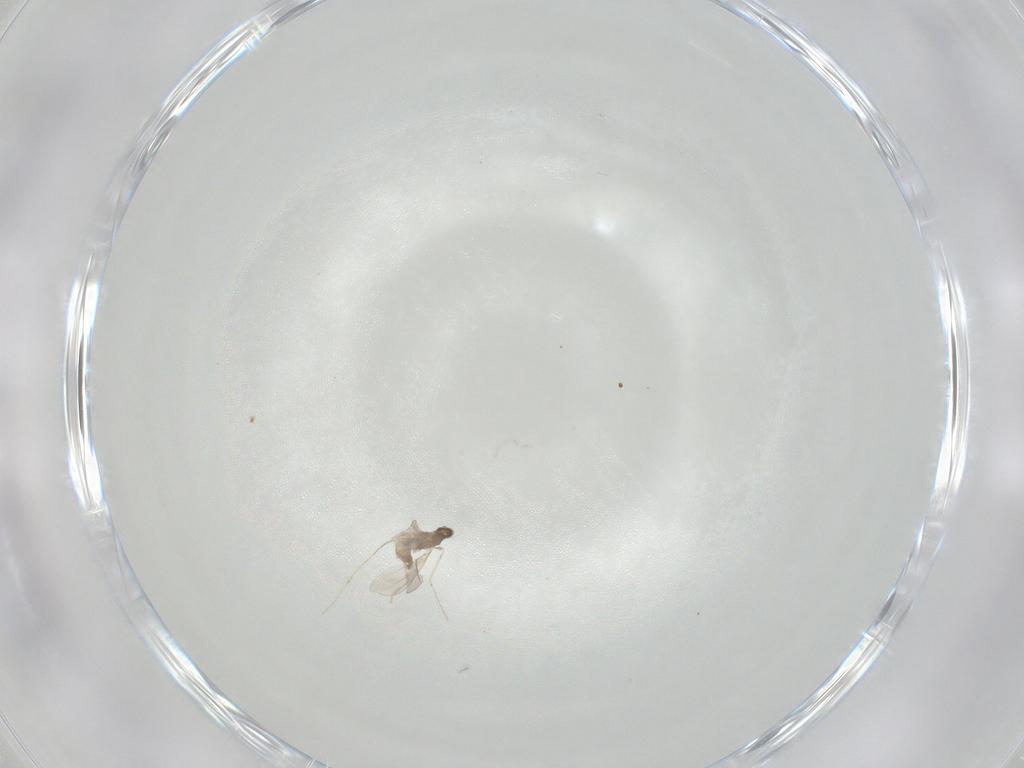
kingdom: Animalia
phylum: Arthropoda
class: Insecta
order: Diptera
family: Cecidomyiidae
